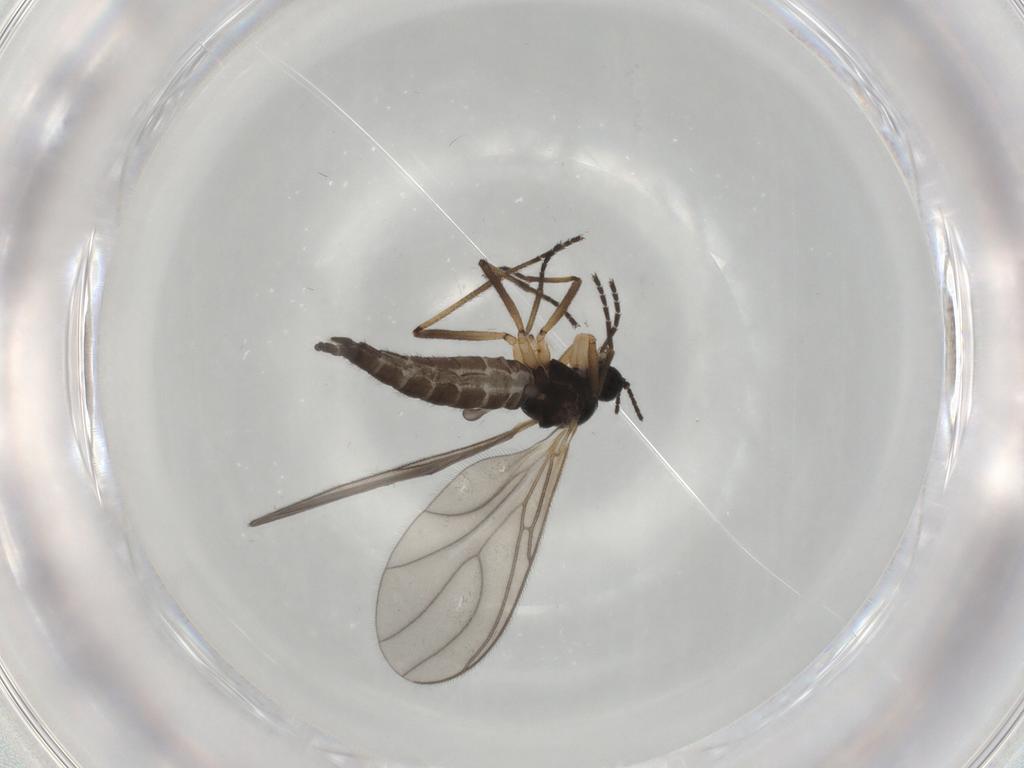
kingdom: Animalia
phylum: Arthropoda
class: Insecta
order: Diptera
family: Sciaridae
